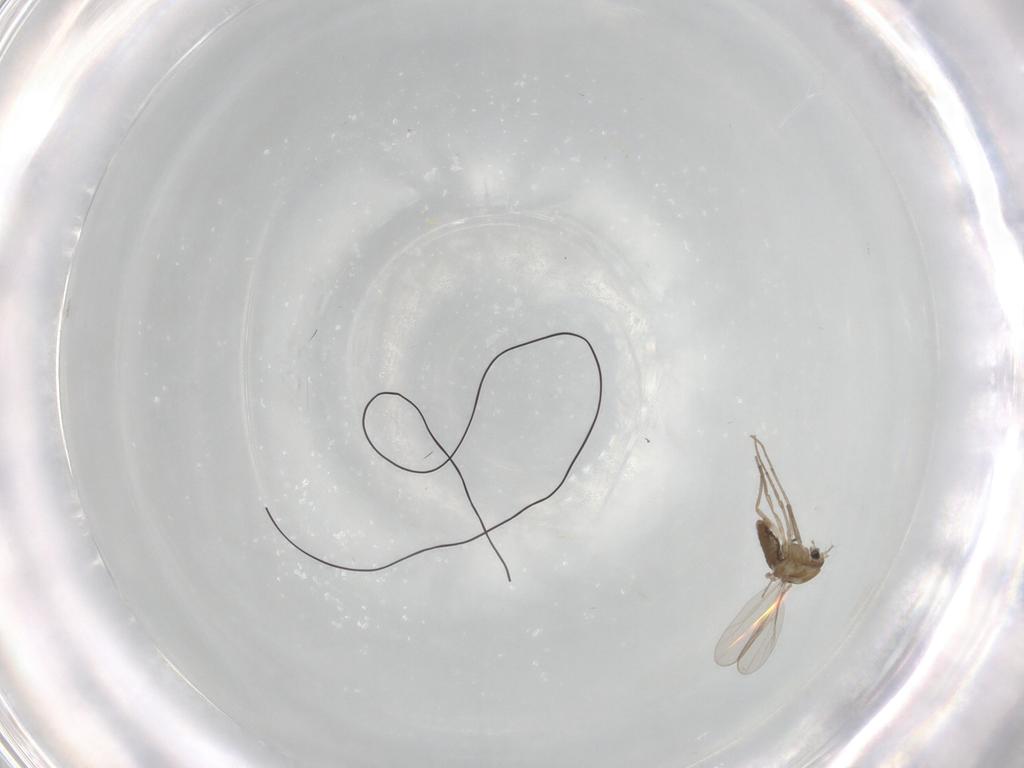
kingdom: Animalia
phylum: Arthropoda
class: Insecta
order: Diptera
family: Chironomidae
